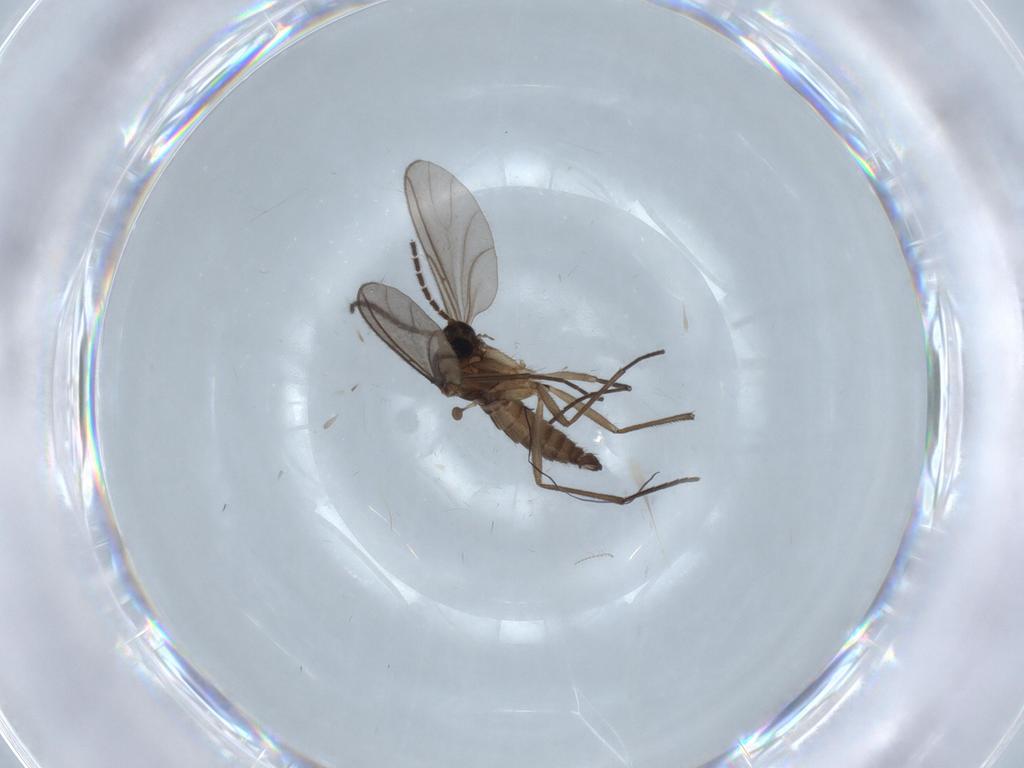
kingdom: Animalia
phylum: Arthropoda
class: Insecta
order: Diptera
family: Sciaridae
